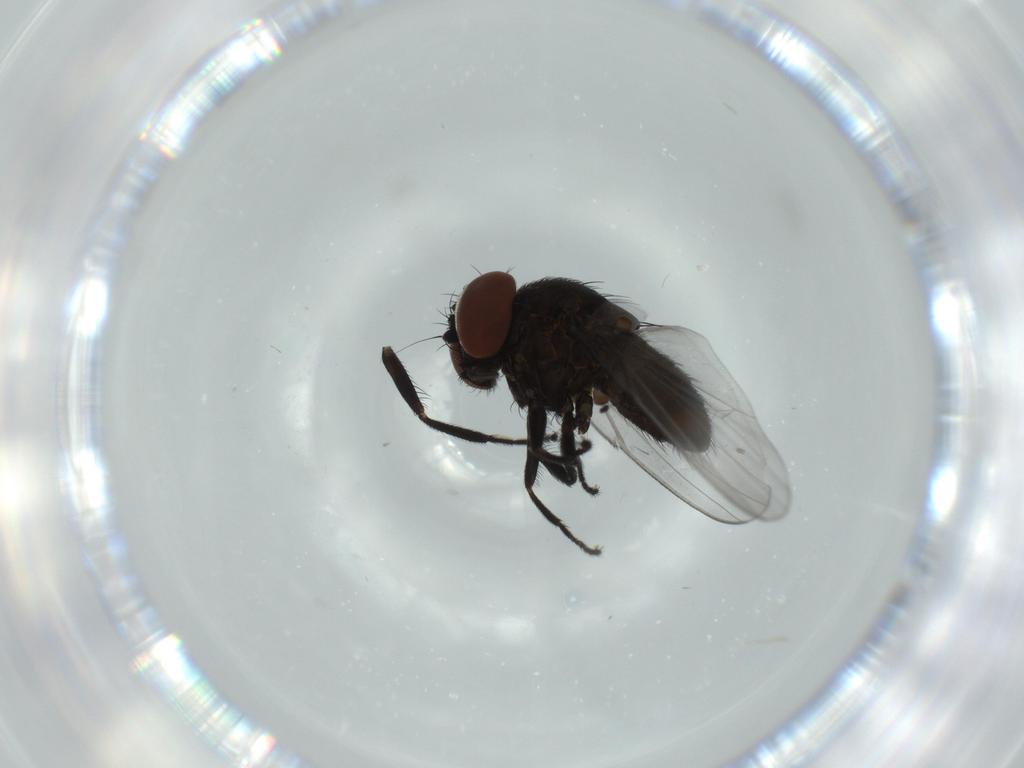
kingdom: Animalia
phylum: Arthropoda
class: Insecta
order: Diptera
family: Milichiidae
